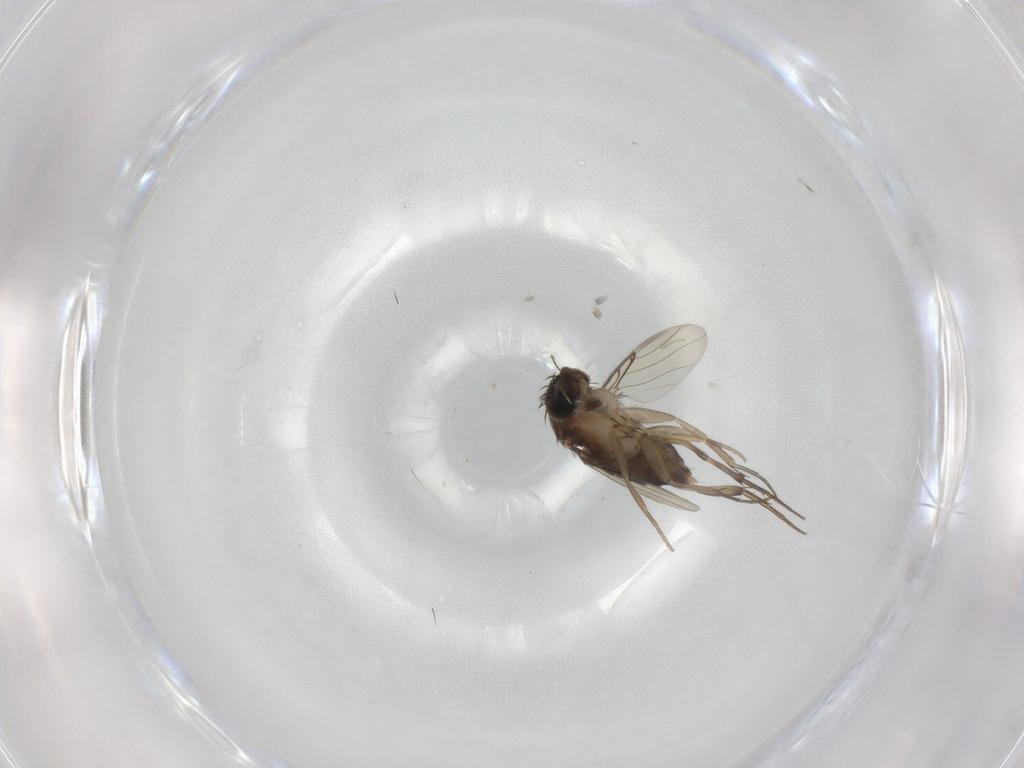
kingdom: Animalia
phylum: Arthropoda
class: Insecta
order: Diptera
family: Phoridae
